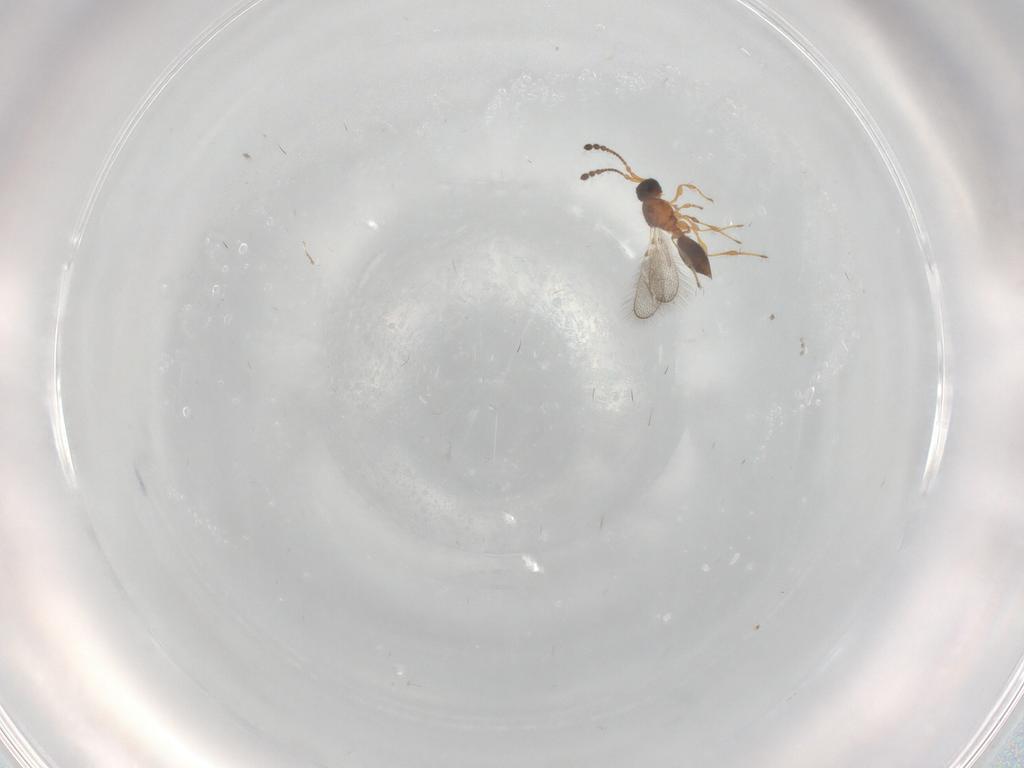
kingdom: Animalia
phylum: Arthropoda
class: Insecta
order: Hymenoptera
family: Diapriidae
